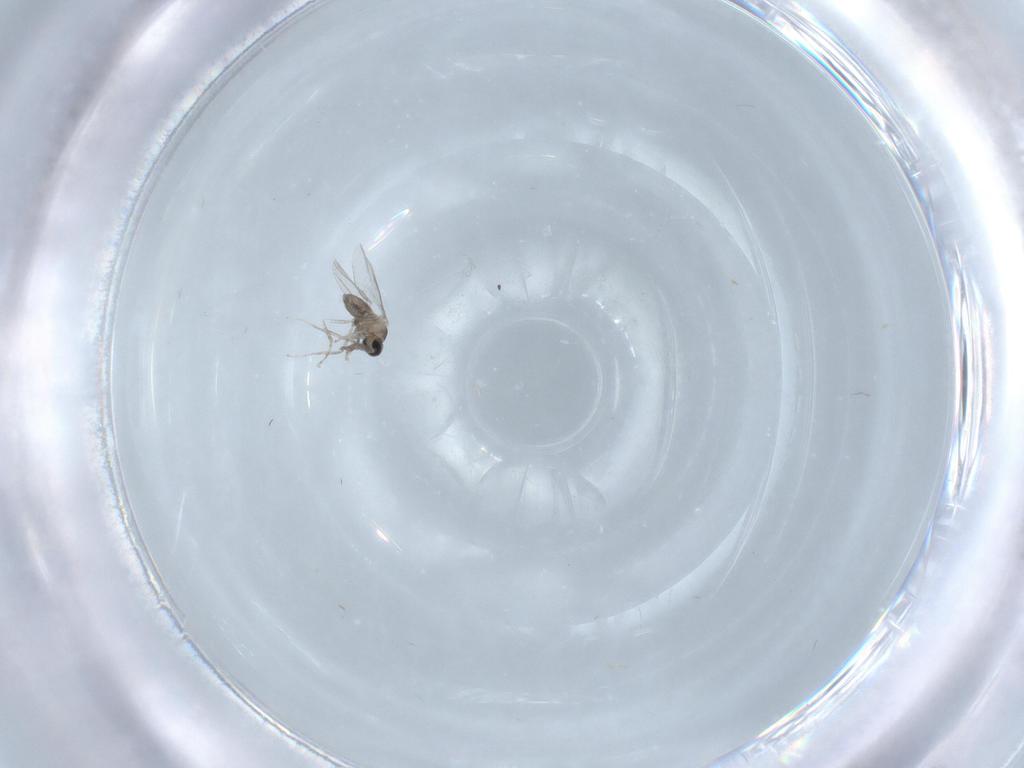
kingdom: Animalia
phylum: Arthropoda
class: Insecta
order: Diptera
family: Cecidomyiidae
